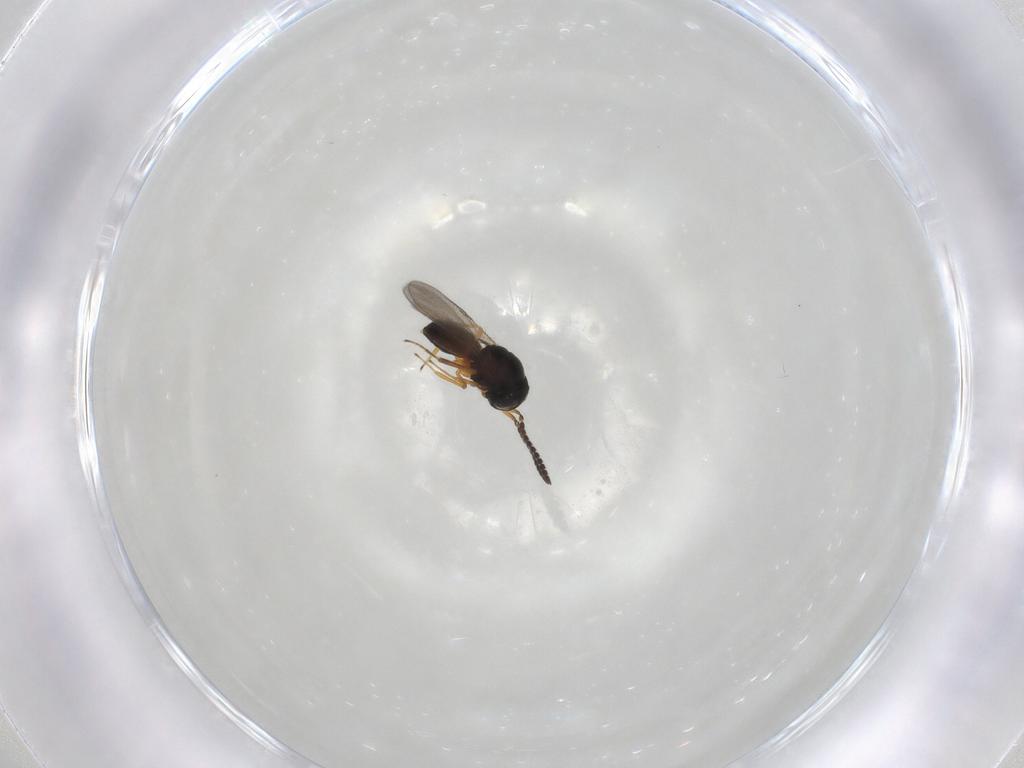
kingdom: Animalia
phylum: Arthropoda
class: Insecta
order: Hymenoptera
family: Scelionidae
